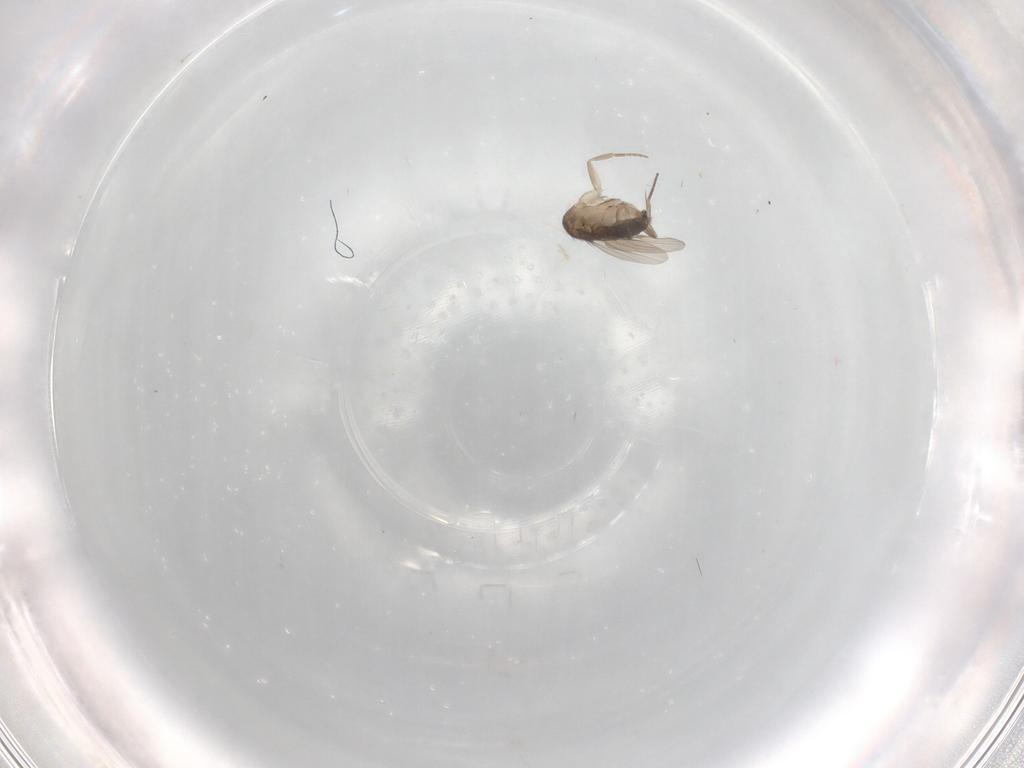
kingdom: Animalia
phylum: Arthropoda
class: Insecta
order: Diptera
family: Phoridae
